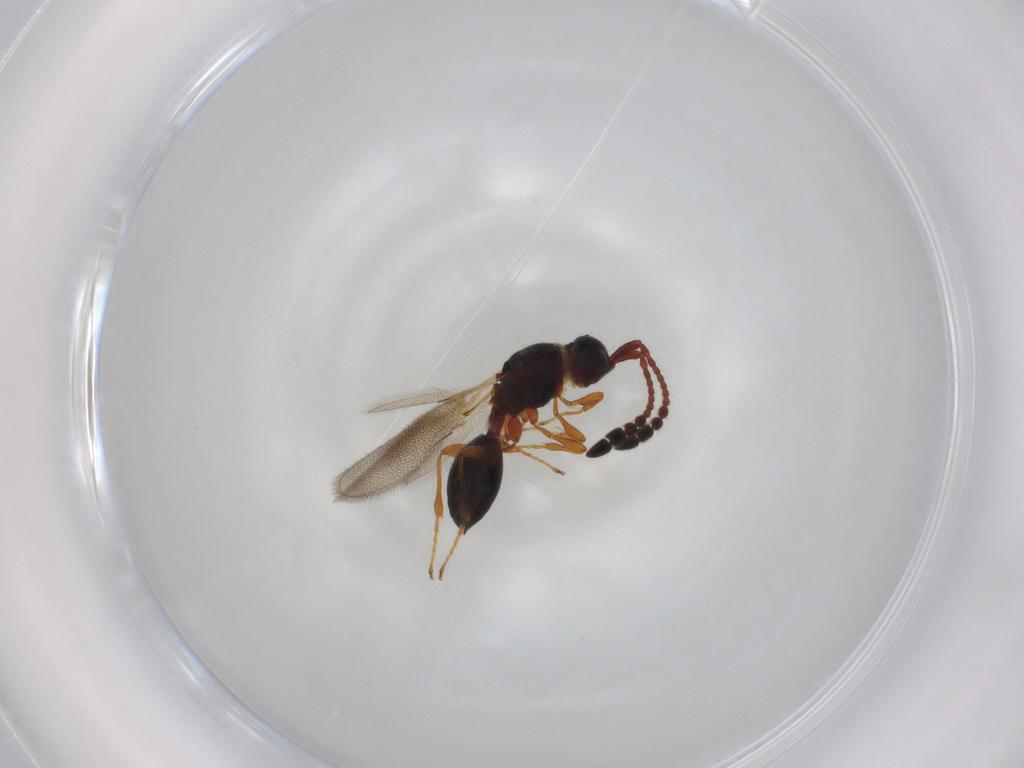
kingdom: Animalia
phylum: Arthropoda
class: Insecta
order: Hymenoptera
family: Diapriidae
